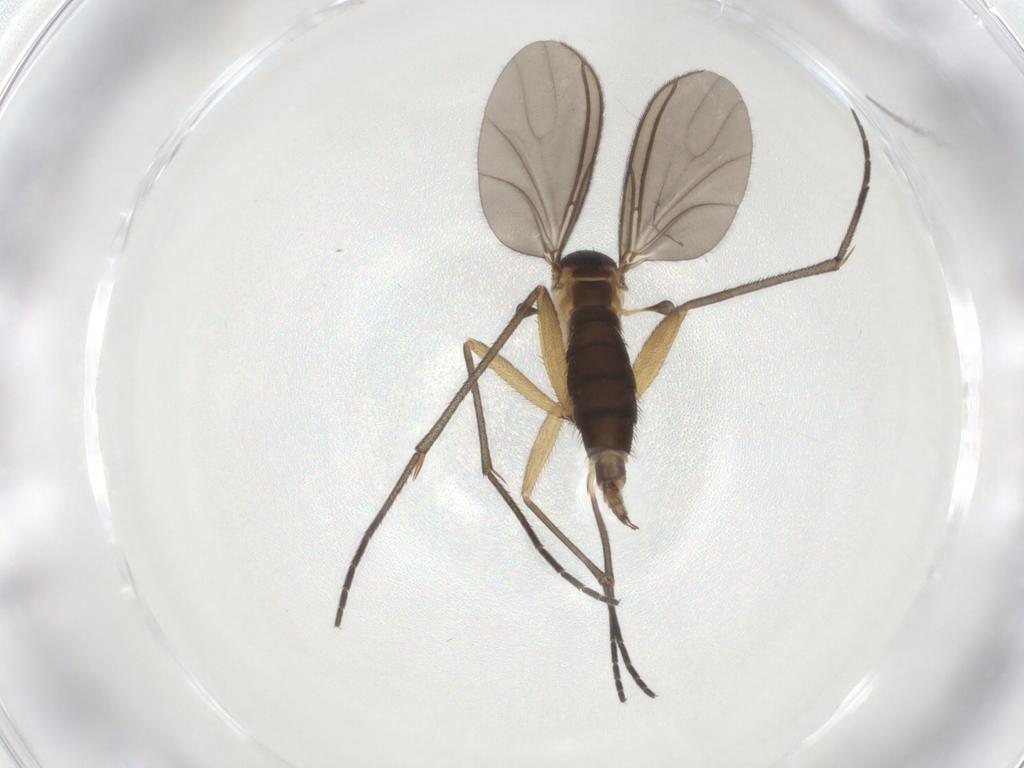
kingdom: Animalia
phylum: Arthropoda
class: Insecta
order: Diptera
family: Sciaridae
